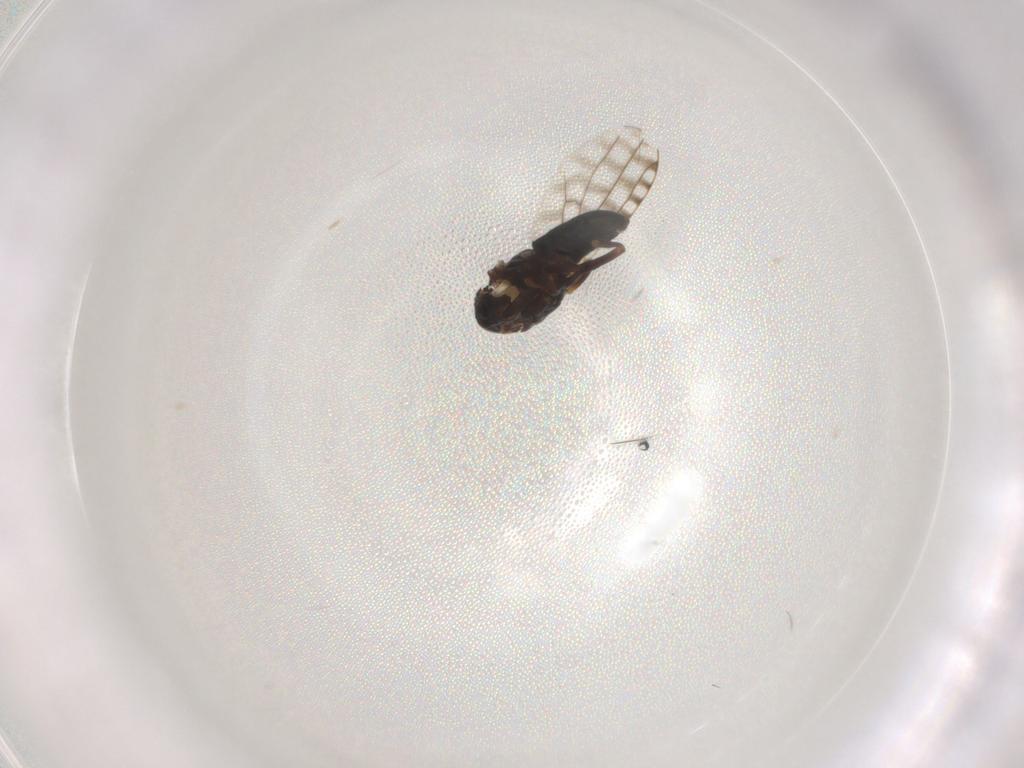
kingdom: Animalia
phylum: Arthropoda
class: Insecta
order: Diptera
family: Ephydridae
